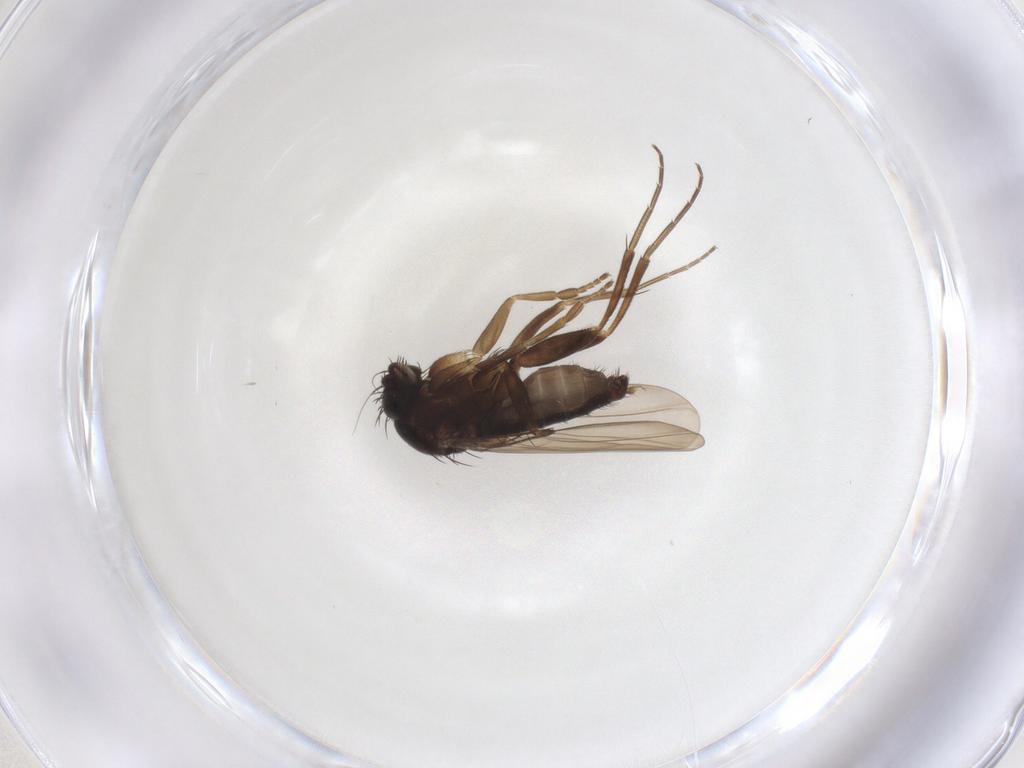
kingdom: Animalia
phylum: Arthropoda
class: Insecta
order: Diptera
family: Phoridae
